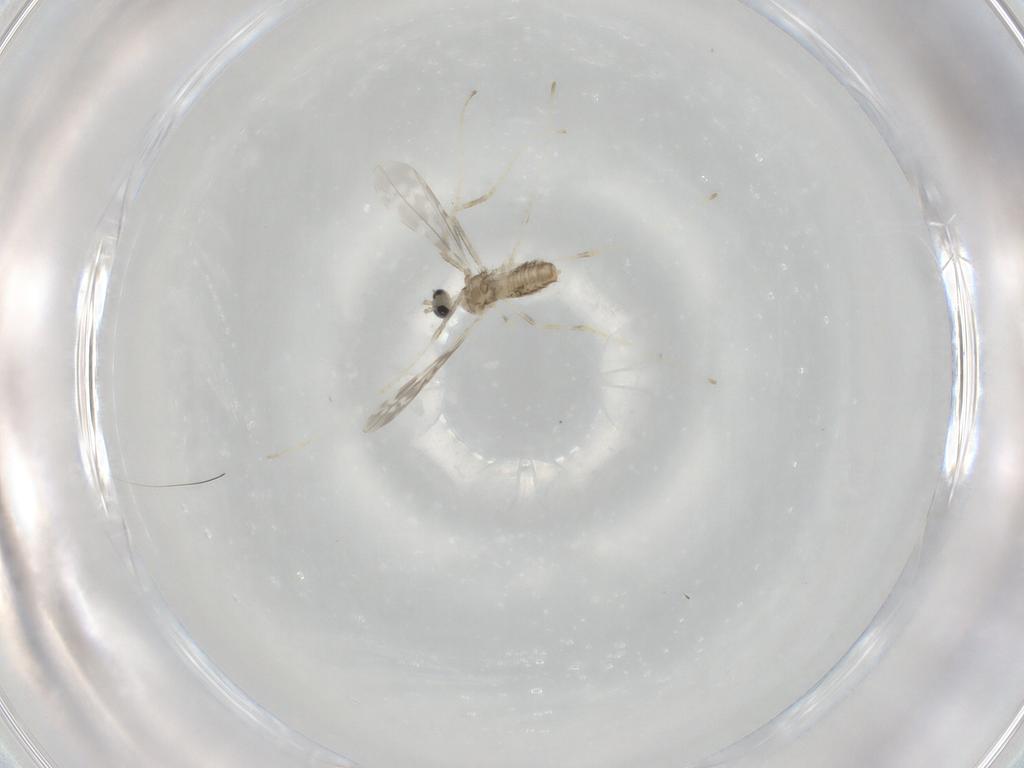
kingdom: Animalia
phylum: Arthropoda
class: Insecta
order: Diptera
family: Cecidomyiidae
